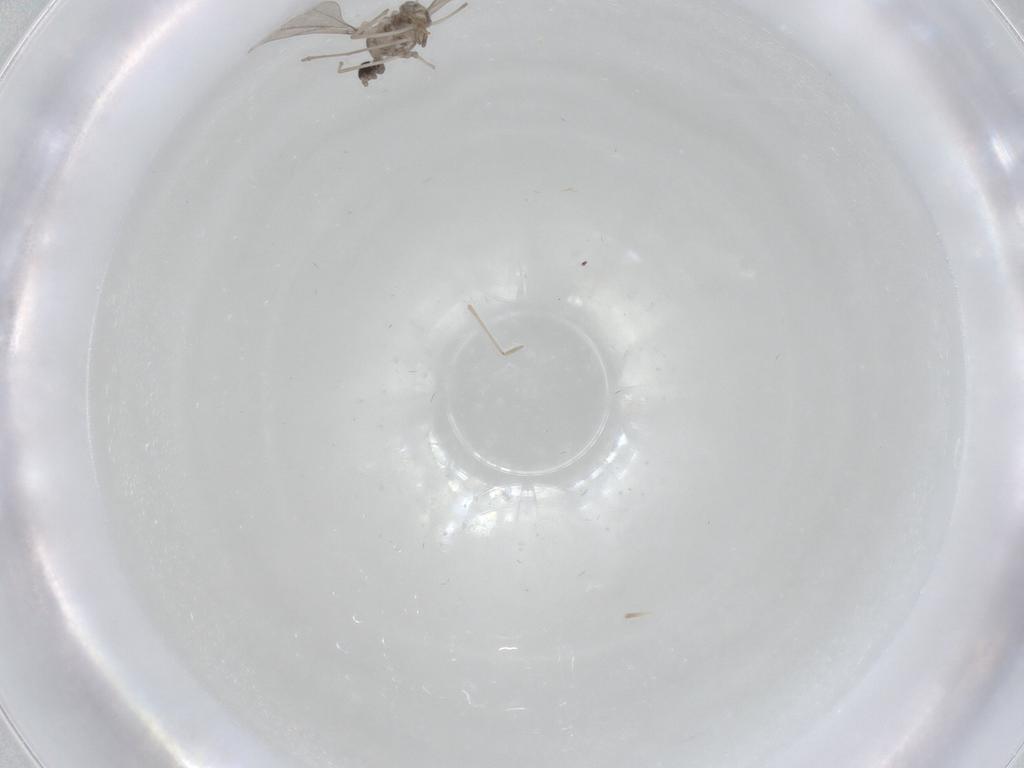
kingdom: Animalia
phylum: Arthropoda
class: Insecta
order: Diptera
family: Cecidomyiidae
